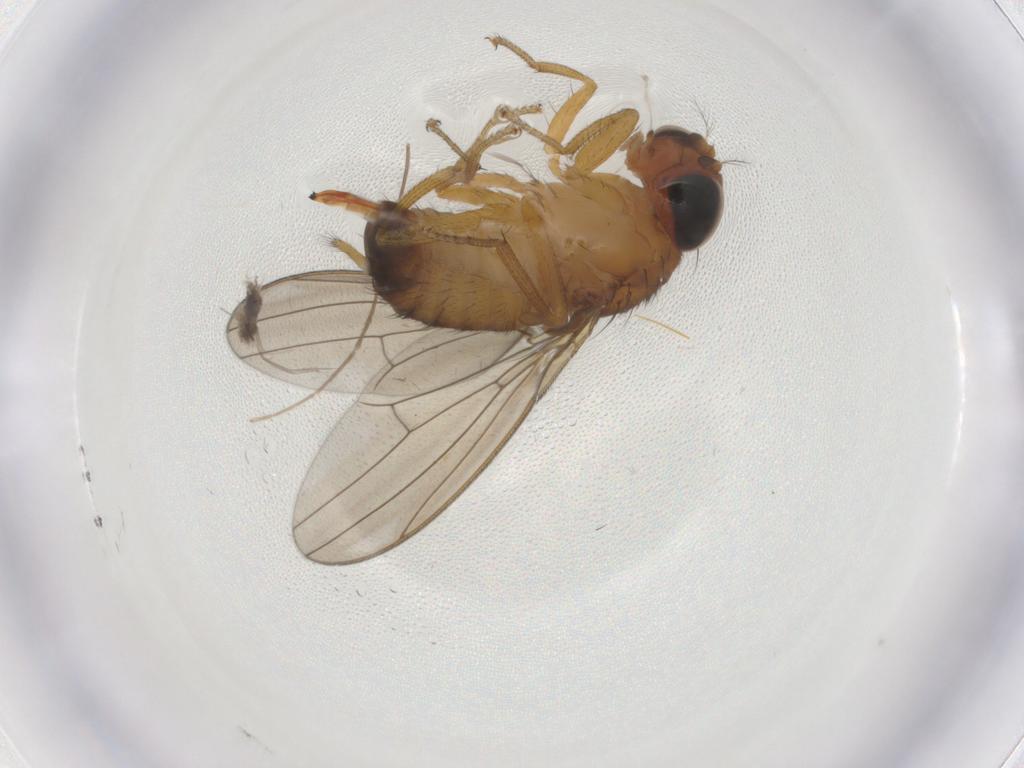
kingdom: Animalia
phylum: Arthropoda
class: Insecta
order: Diptera
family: Drosophilidae
